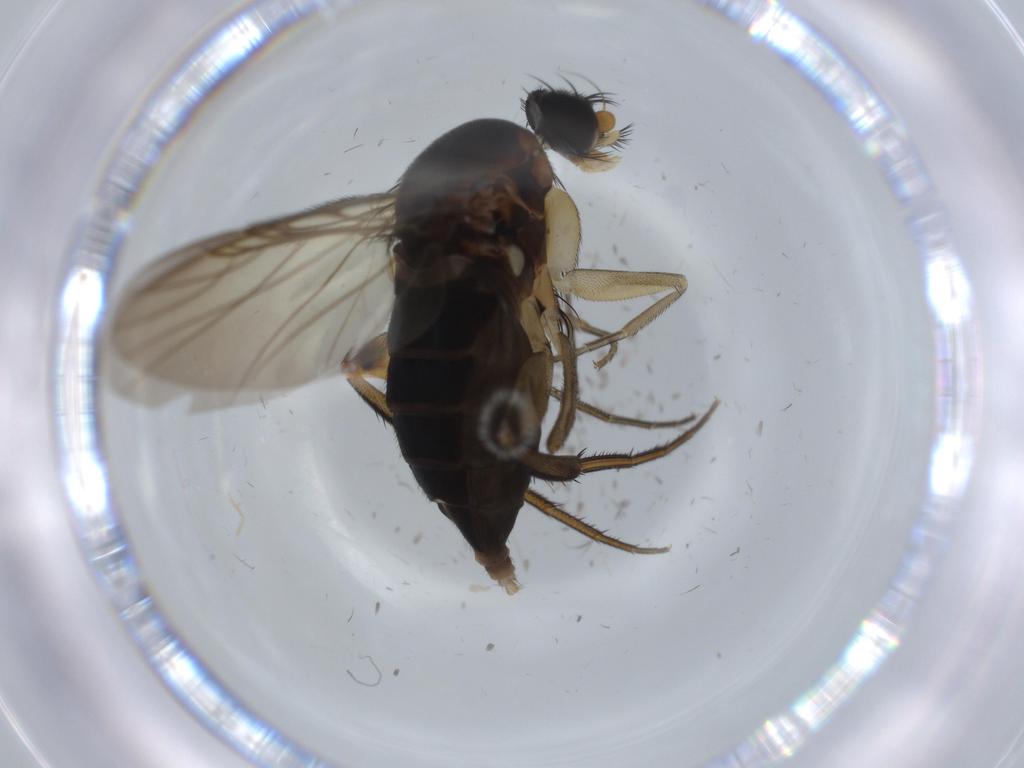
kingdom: Animalia
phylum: Arthropoda
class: Insecta
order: Diptera
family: Phoridae
